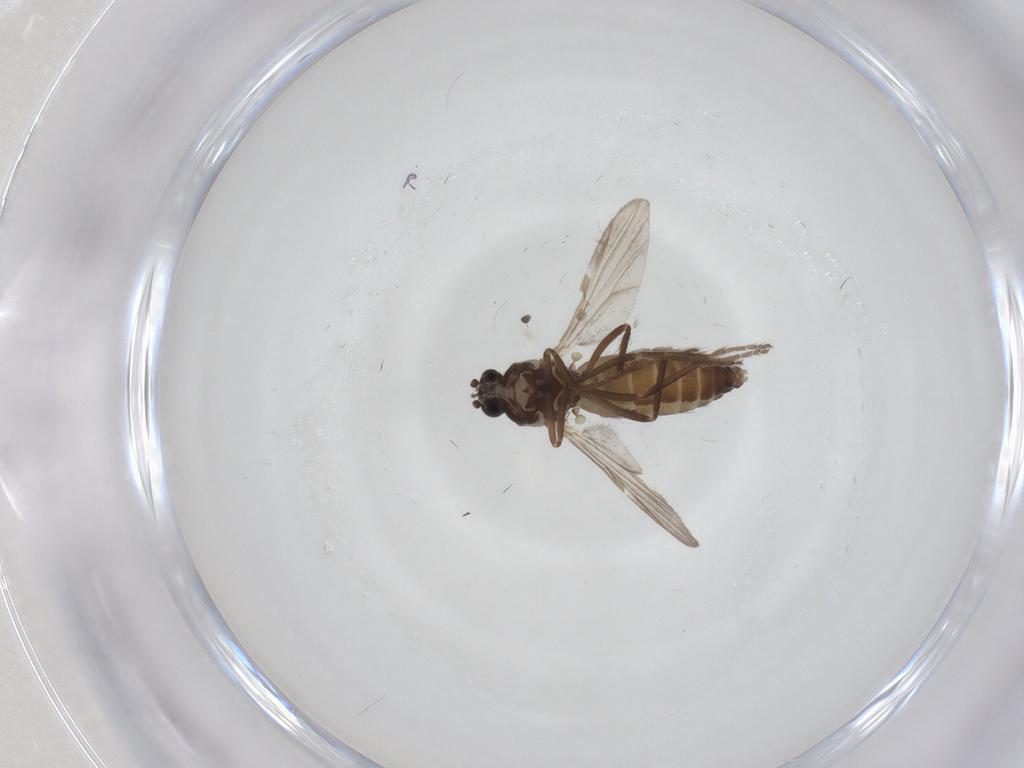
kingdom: Animalia
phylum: Arthropoda
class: Insecta
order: Diptera
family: Ceratopogonidae
